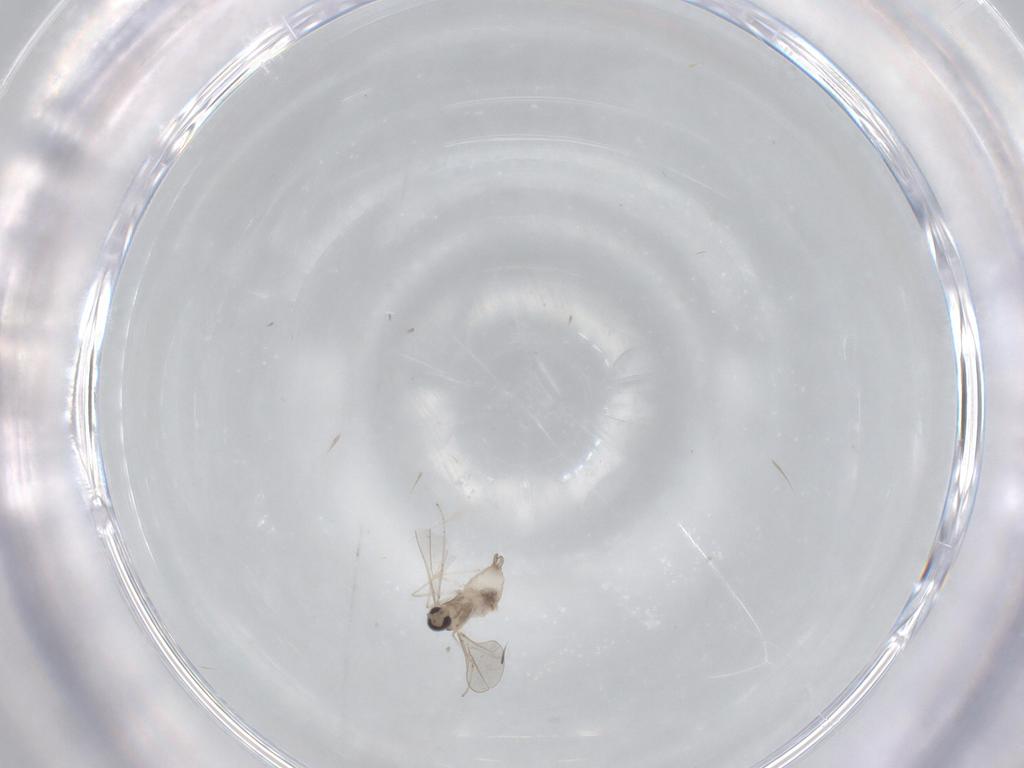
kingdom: Animalia
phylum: Arthropoda
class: Insecta
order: Diptera
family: Cecidomyiidae
